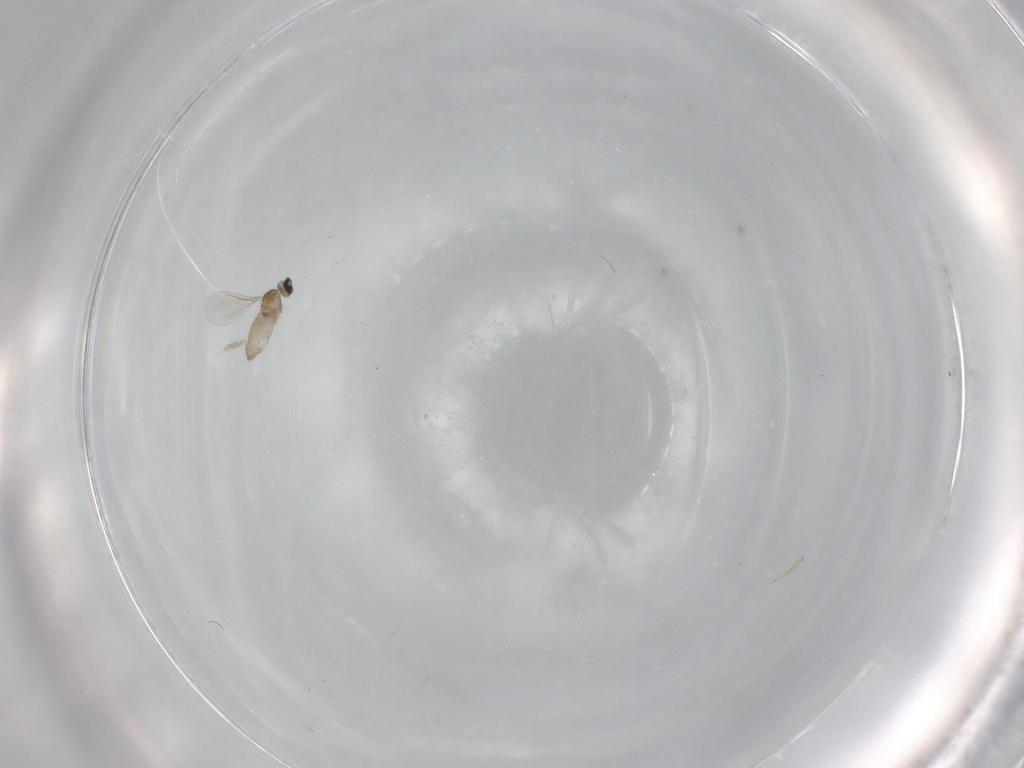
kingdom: Animalia
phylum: Arthropoda
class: Insecta
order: Diptera
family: Cecidomyiidae
